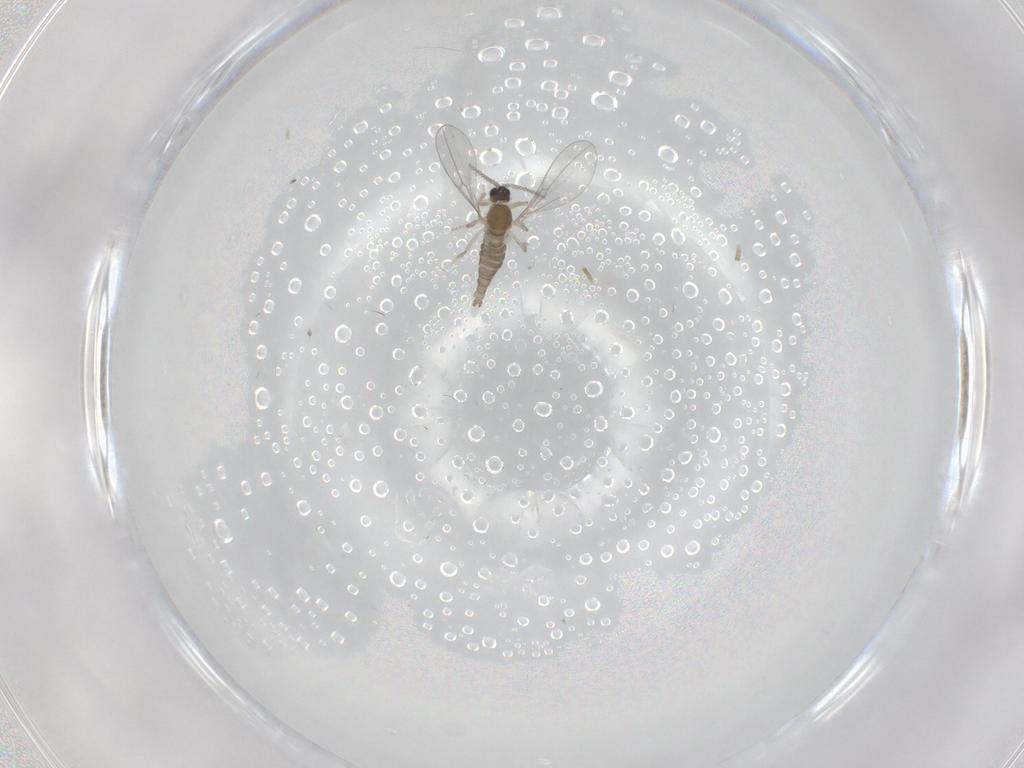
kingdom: Animalia
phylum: Arthropoda
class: Insecta
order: Diptera
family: Cecidomyiidae
